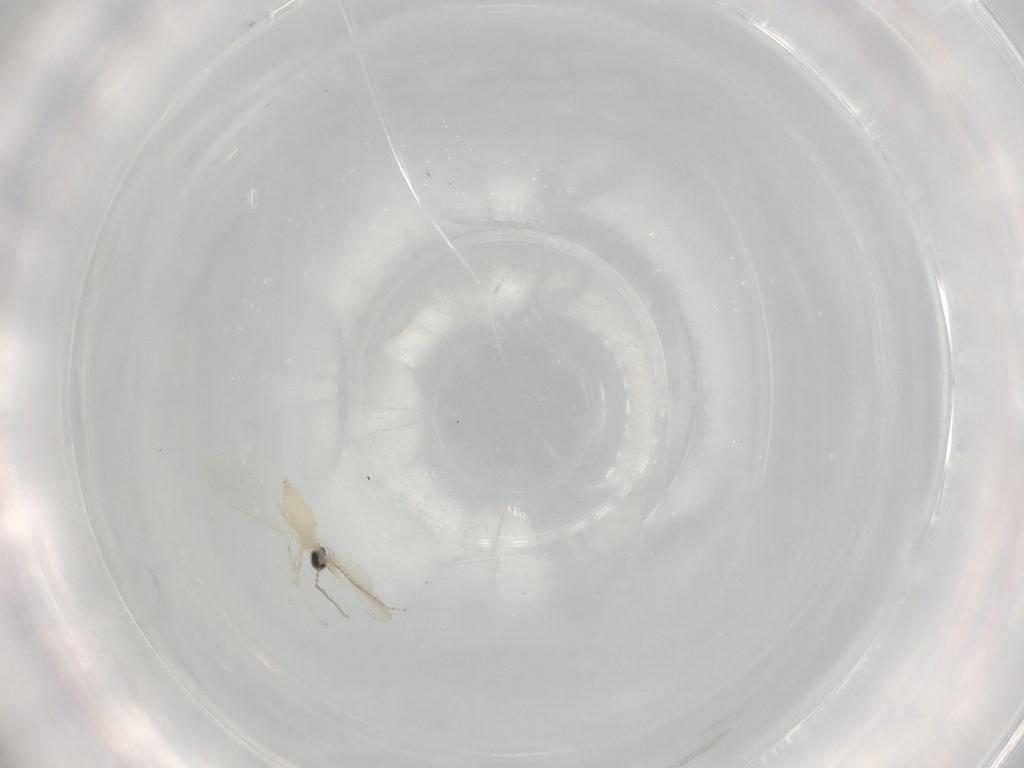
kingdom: Animalia
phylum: Arthropoda
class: Insecta
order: Diptera
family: Cecidomyiidae
